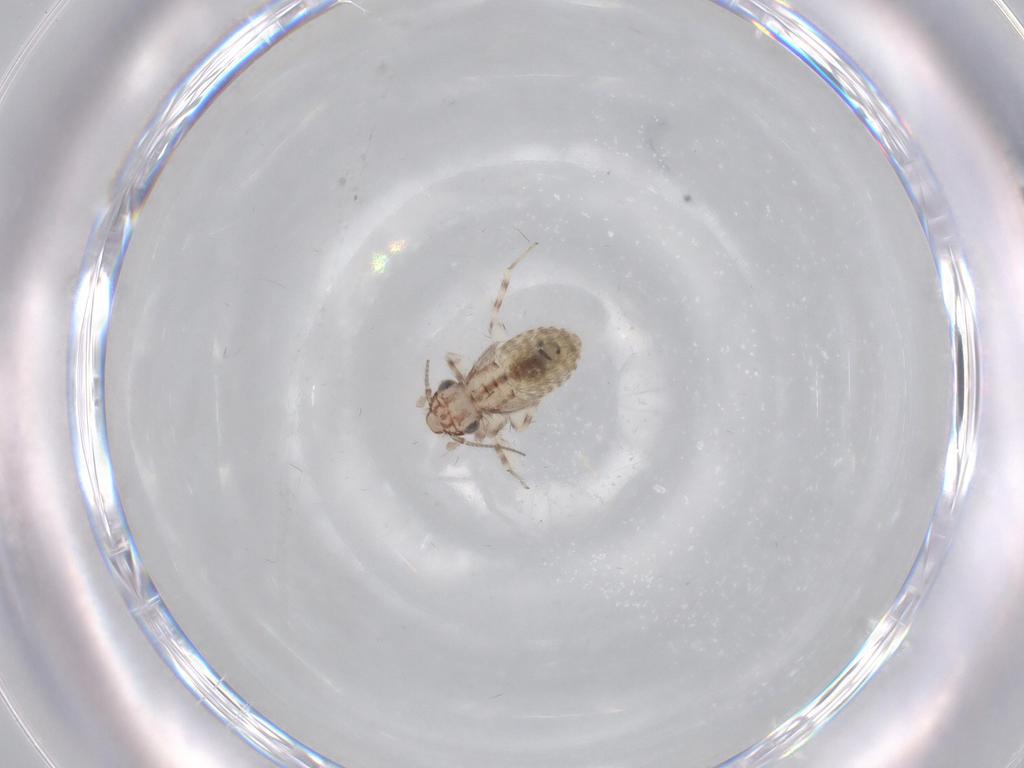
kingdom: Animalia
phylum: Arthropoda
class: Insecta
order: Psocodea
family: Lepidopsocidae
